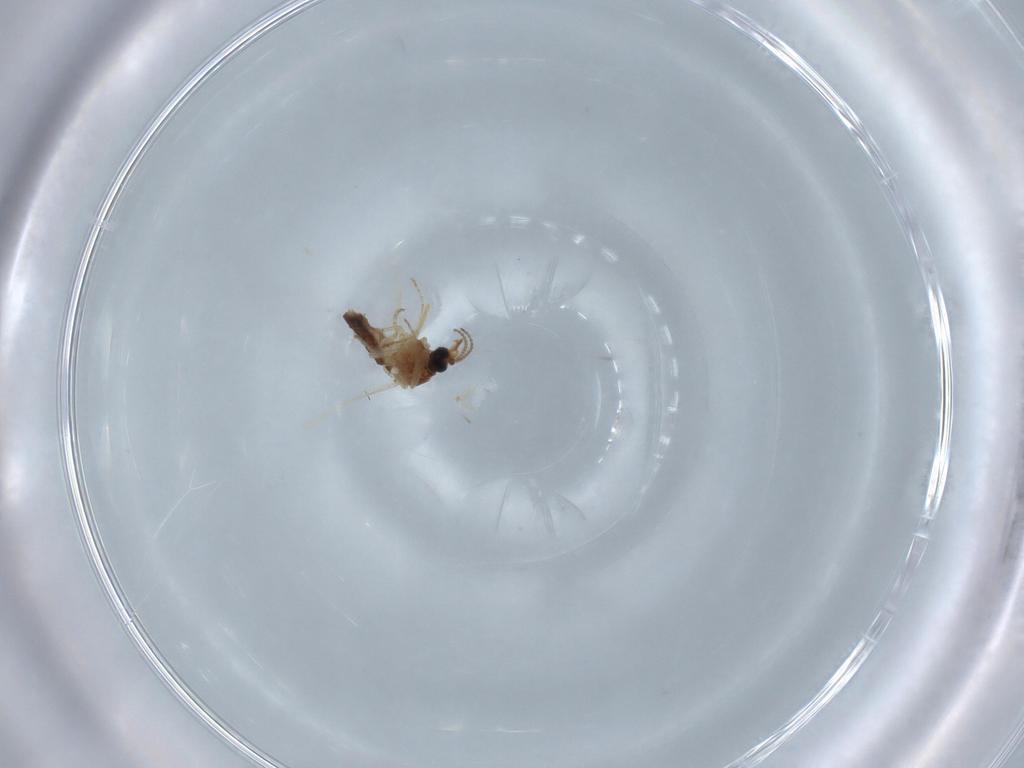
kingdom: Animalia
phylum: Arthropoda
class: Insecta
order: Diptera
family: Ceratopogonidae
